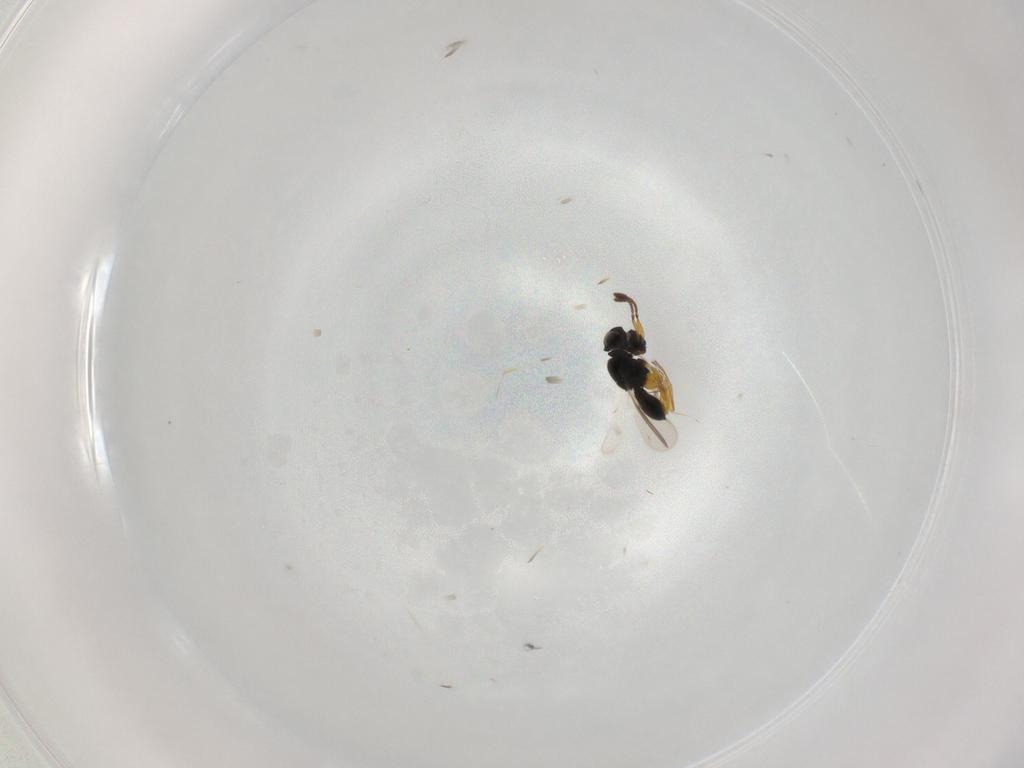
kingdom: Animalia
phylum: Arthropoda
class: Insecta
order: Hymenoptera
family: Scelionidae
